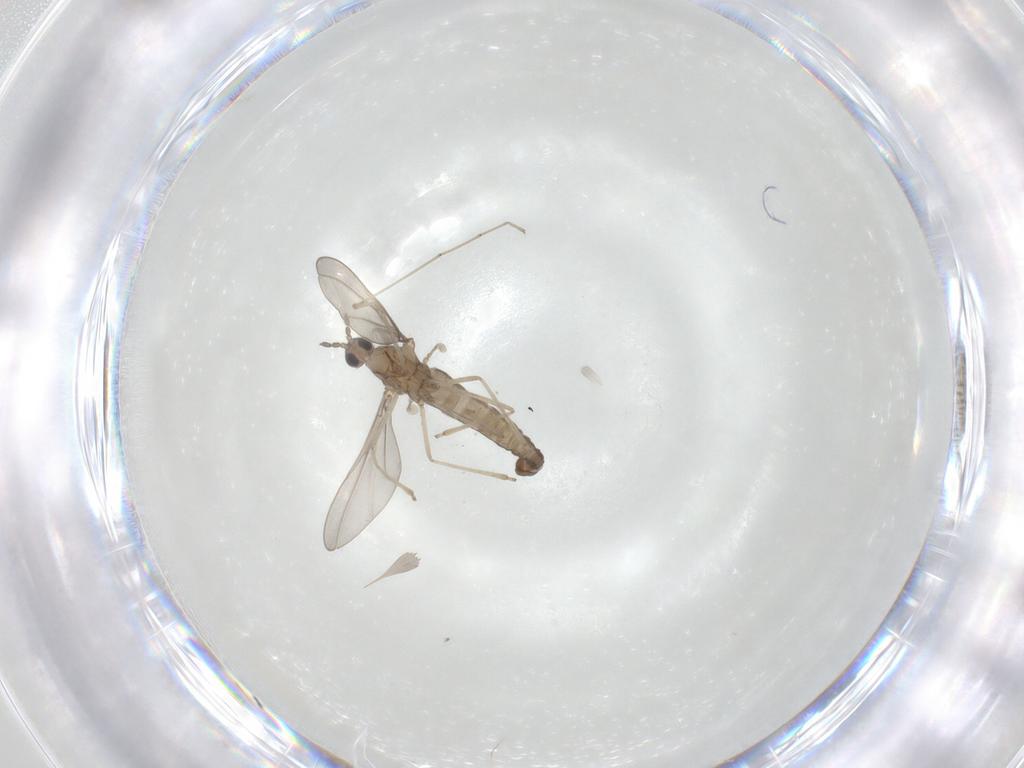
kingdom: Animalia
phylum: Arthropoda
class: Insecta
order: Diptera
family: Cecidomyiidae
